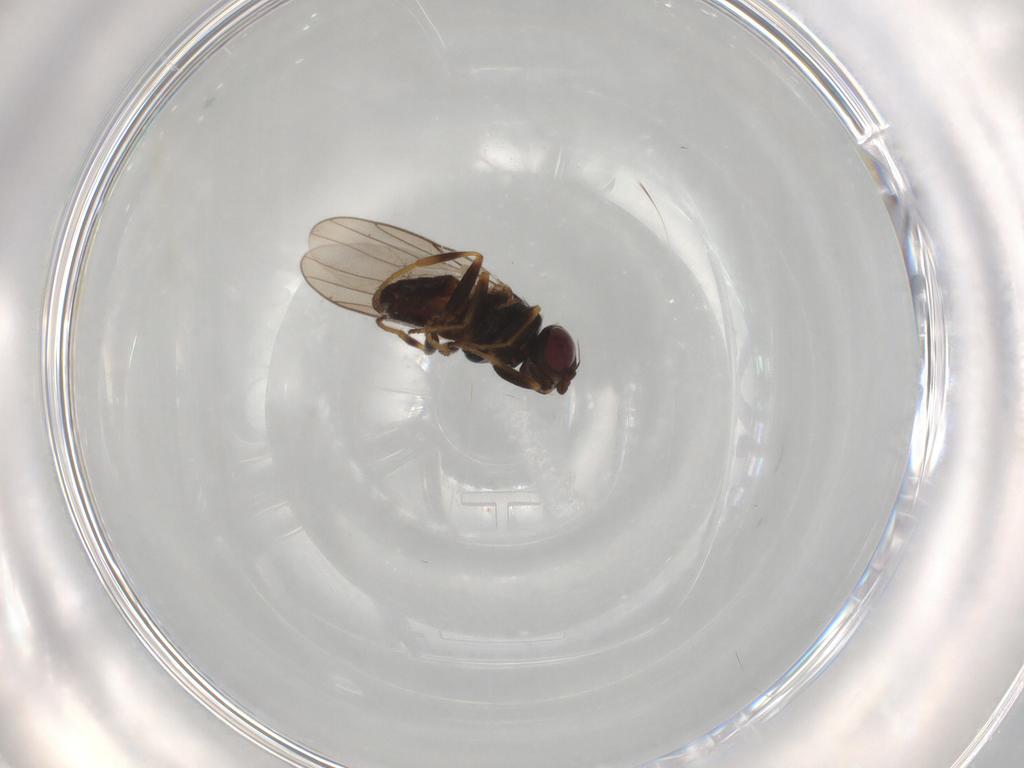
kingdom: Animalia
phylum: Arthropoda
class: Insecta
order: Diptera
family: Chloropidae
